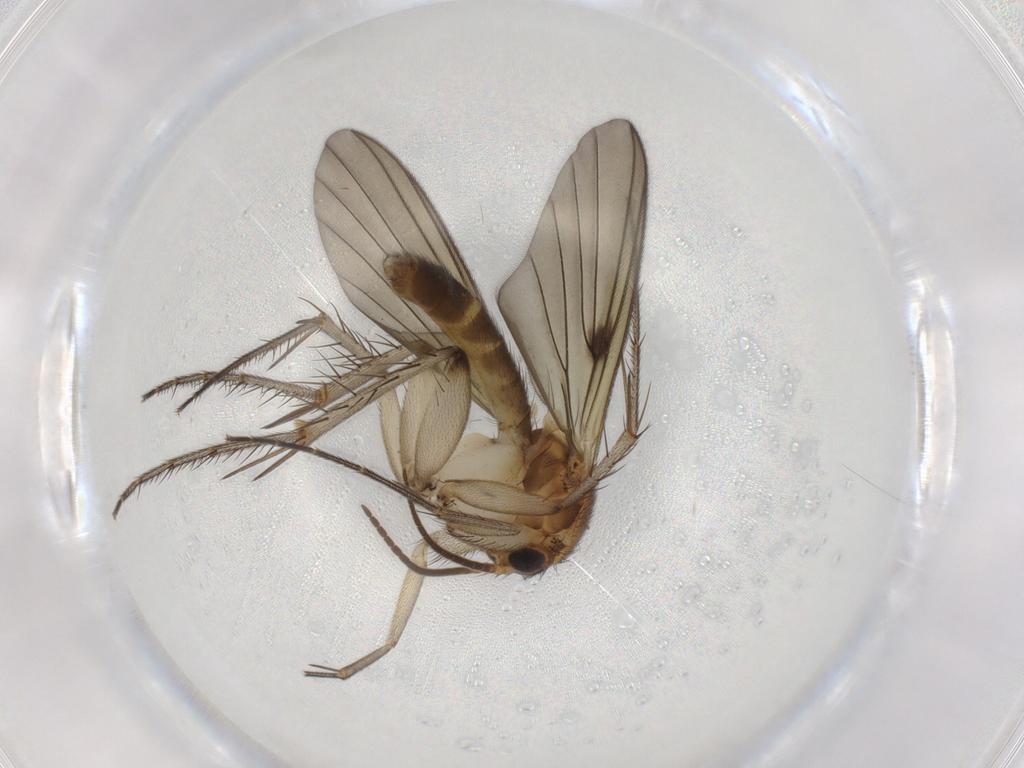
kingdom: Animalia
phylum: Arthropoda
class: Insecta
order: Diptera
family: Mycetophilidae
